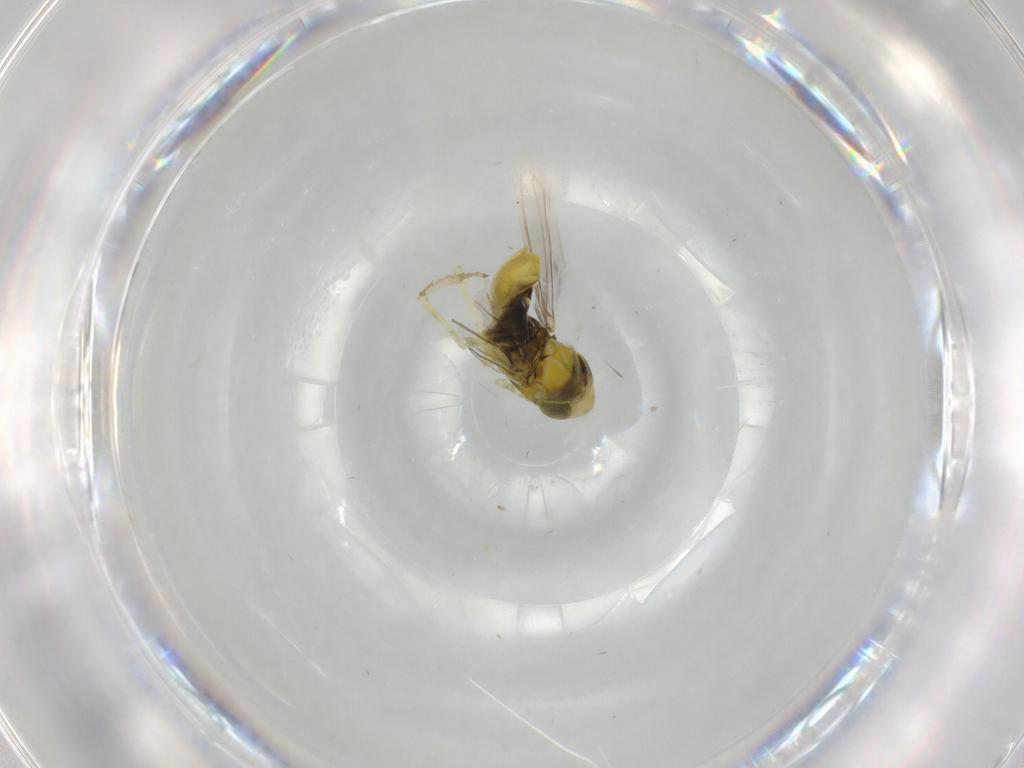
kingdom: Animalia
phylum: Arthropoda
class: Insecta
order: Hemiptera
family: Cicadellidae
